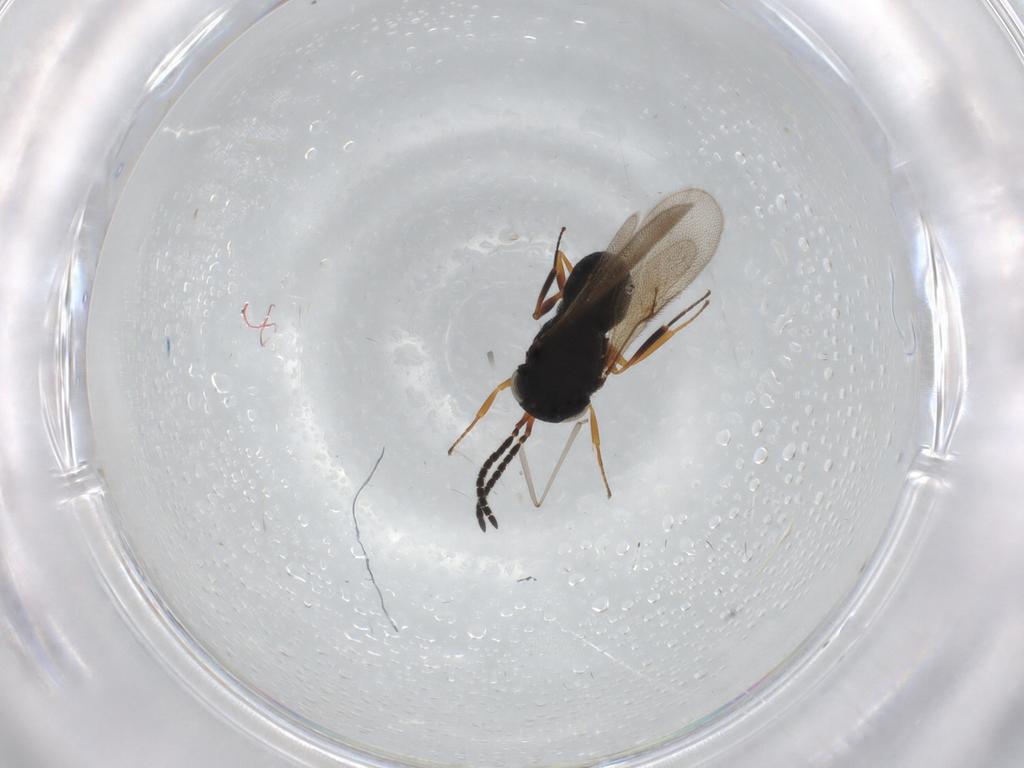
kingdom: Animalia
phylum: Arthropoda
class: Insecta
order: Hymenoptera
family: Scelionidae
